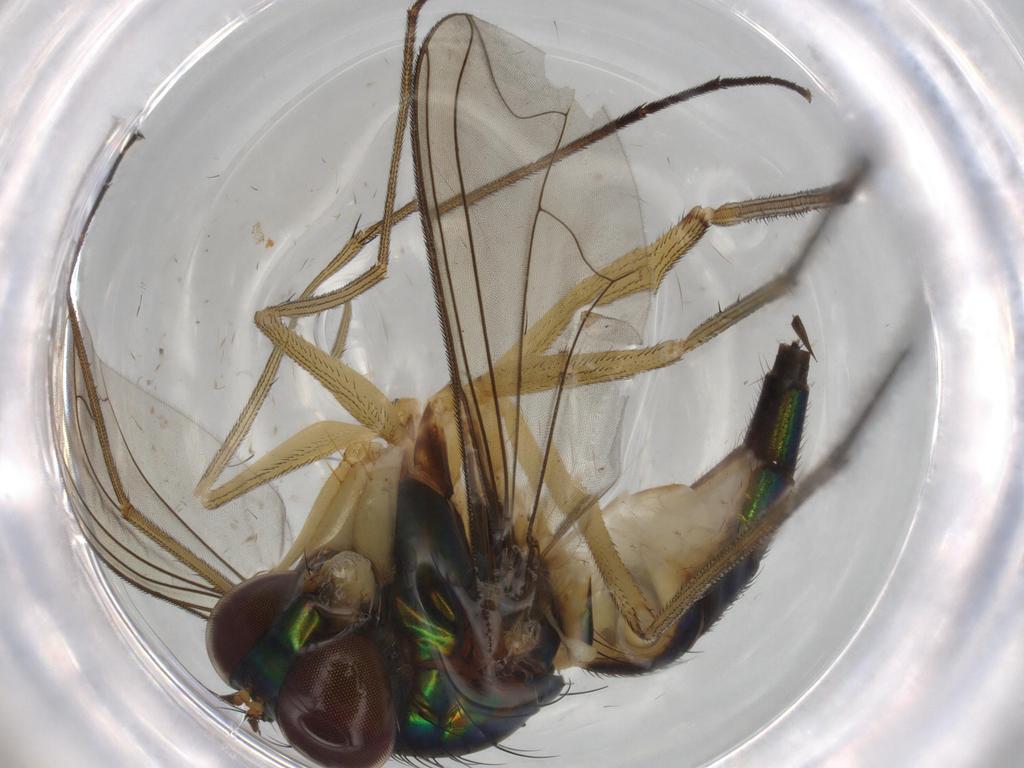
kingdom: Animalia
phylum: Arthropoda
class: Insecta
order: Diptera
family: Dolichopodidae
